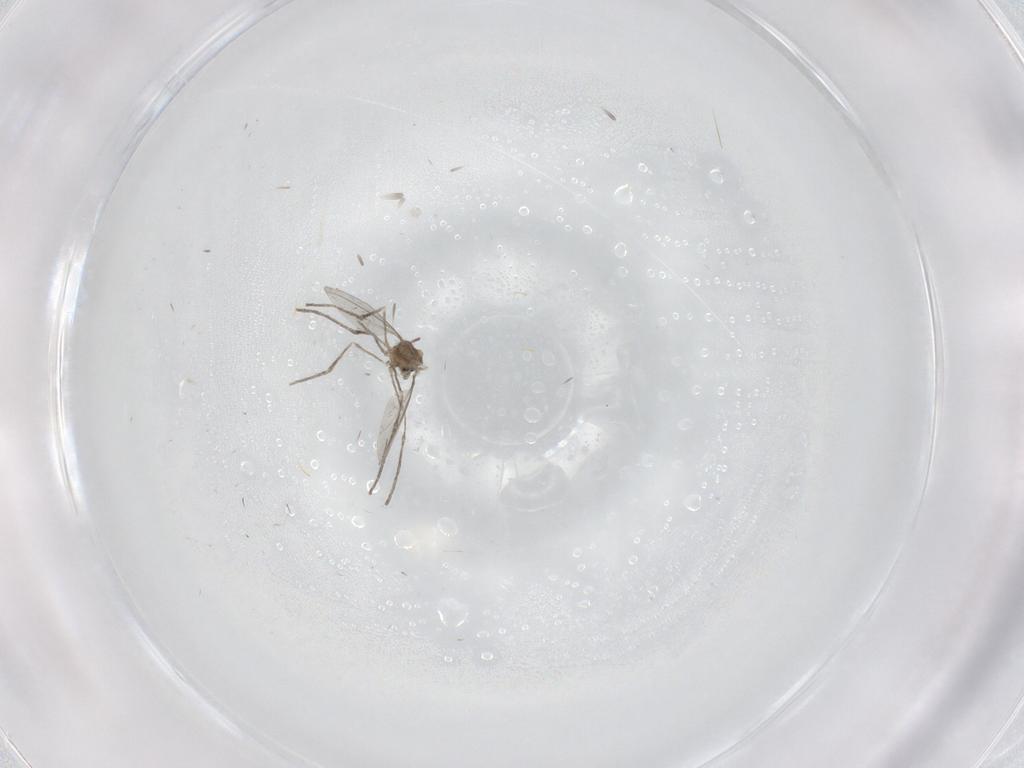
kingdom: Animalia
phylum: Arthropoda
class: Insecta
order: Diptera
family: Cecidomyiidae
